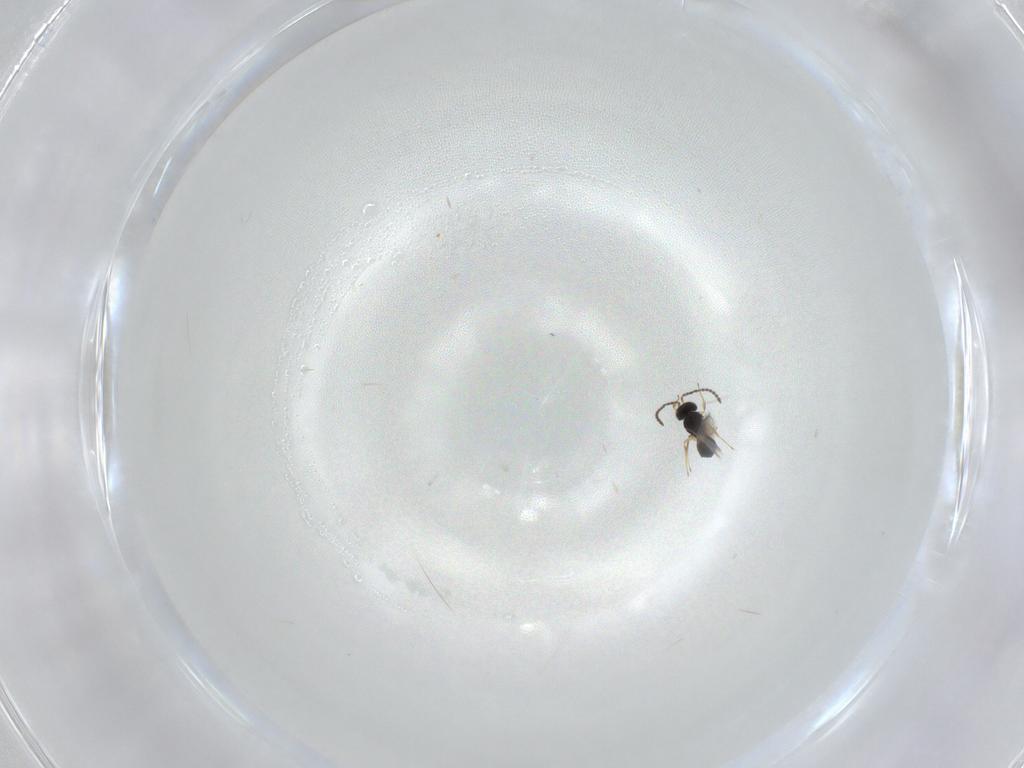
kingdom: Animalia
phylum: Arthropoda
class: Insecta
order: Hymenoptera
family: Scelionidae
